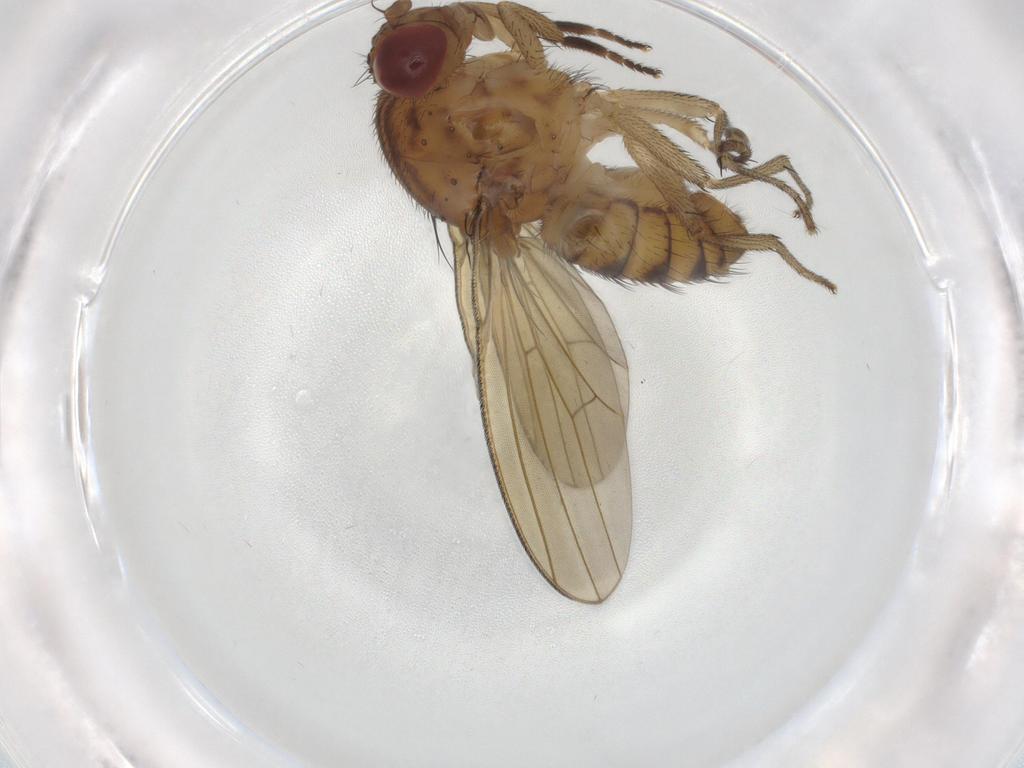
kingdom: Animalia
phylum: Arthropoda
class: Insecta
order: Diptera
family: Lauxaniidae
